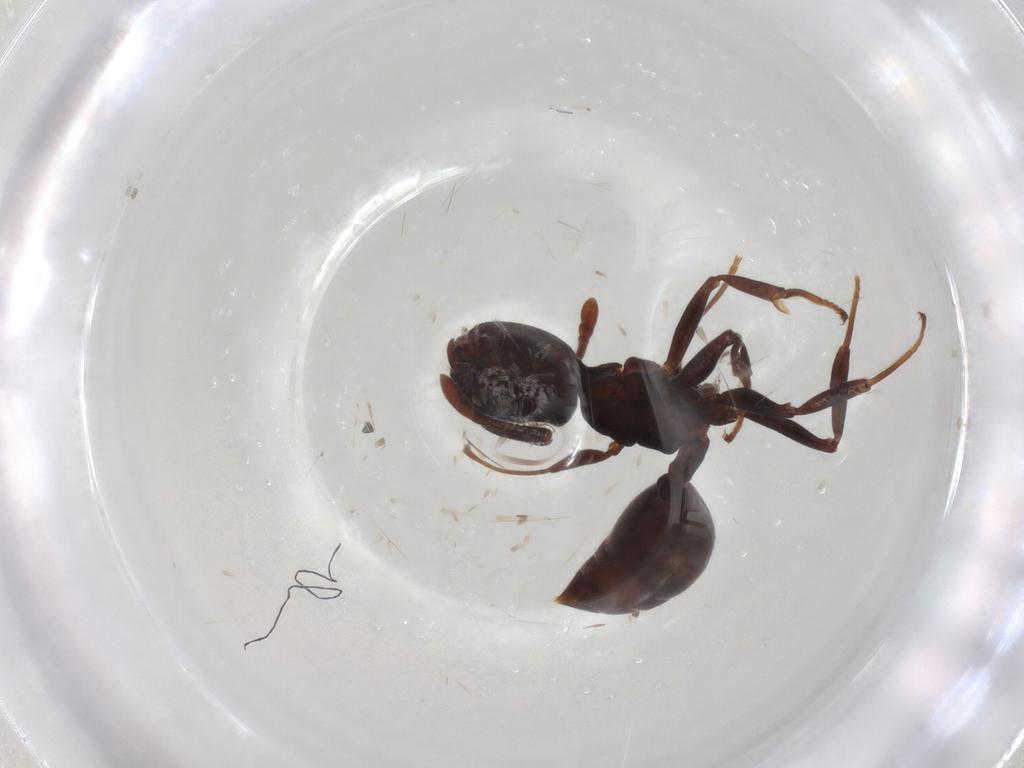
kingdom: Animalia
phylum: Arthropoda
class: Insecta
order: Hymenoptera
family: Formicidae
